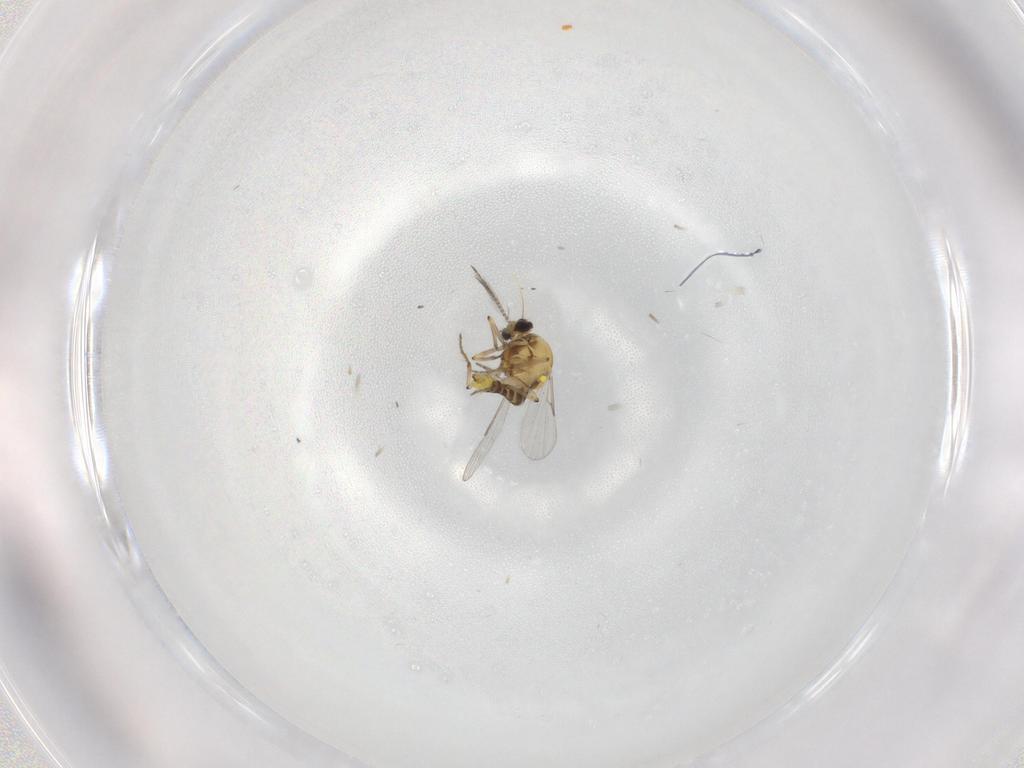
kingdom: Animalia
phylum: Arthropoda
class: Insecta
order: Diptera
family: Ceratopogonidae
